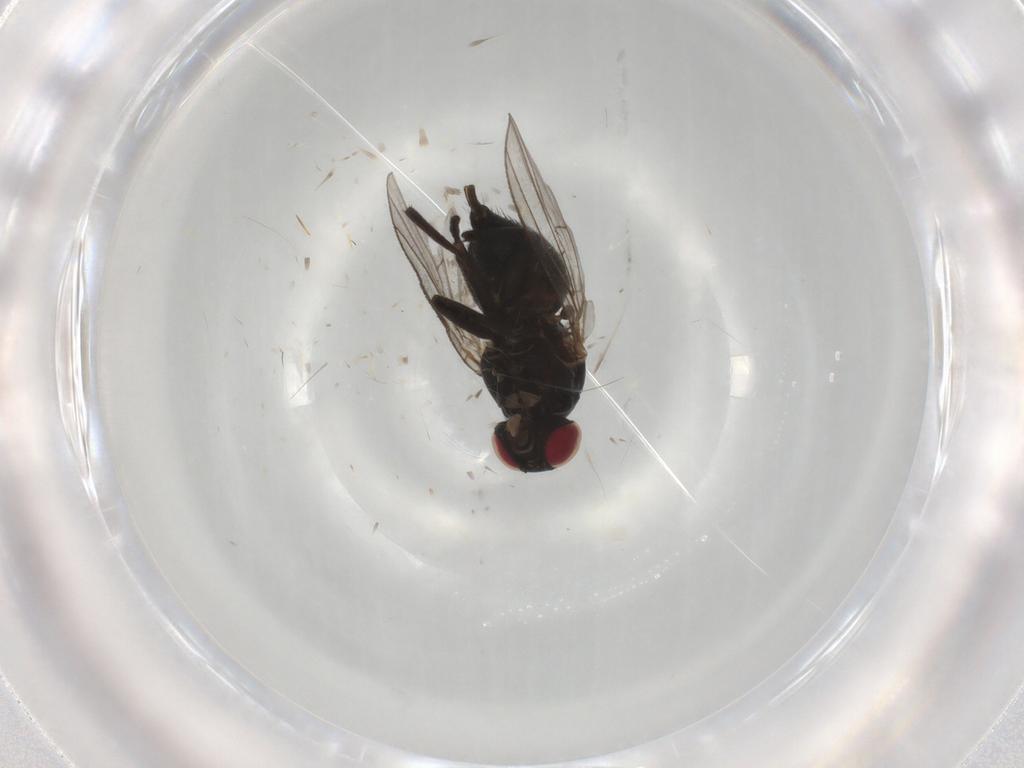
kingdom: Animalia
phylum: Arthropoda
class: Insecta
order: Diptera
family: Agromyzidae
